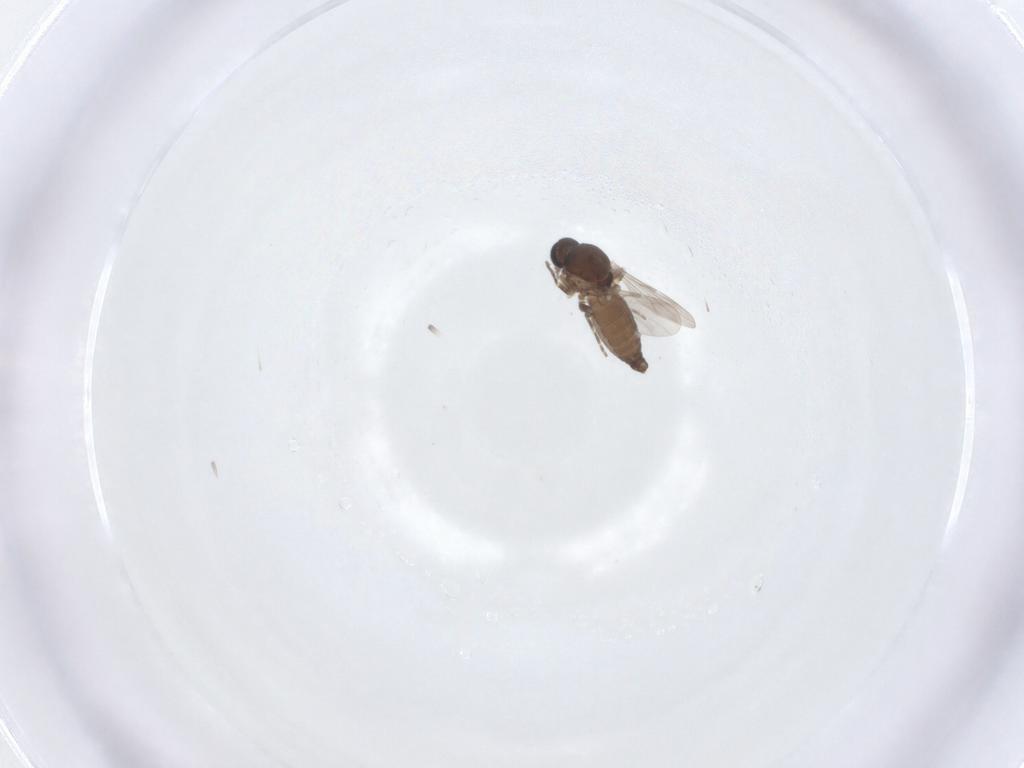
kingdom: Animalia
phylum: Arthropoda
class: Insecta
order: Diptera
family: Ceratopogonidae
